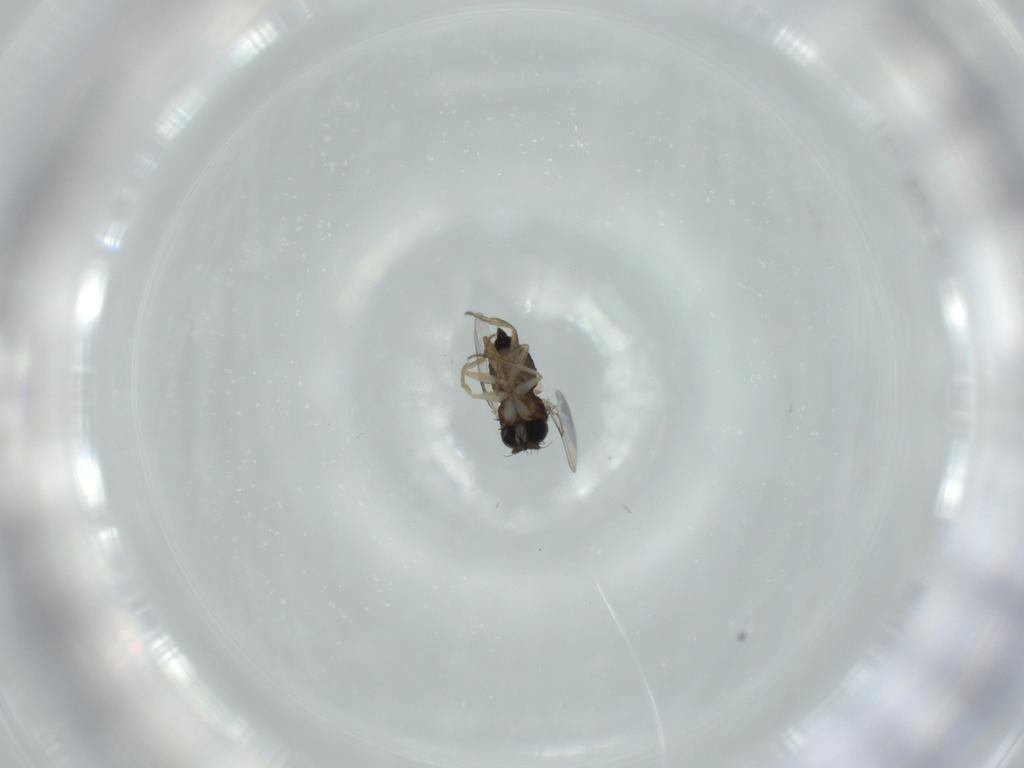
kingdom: Animalia
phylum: Arthropoda
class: Insecta
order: Diptera
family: Phoridae
